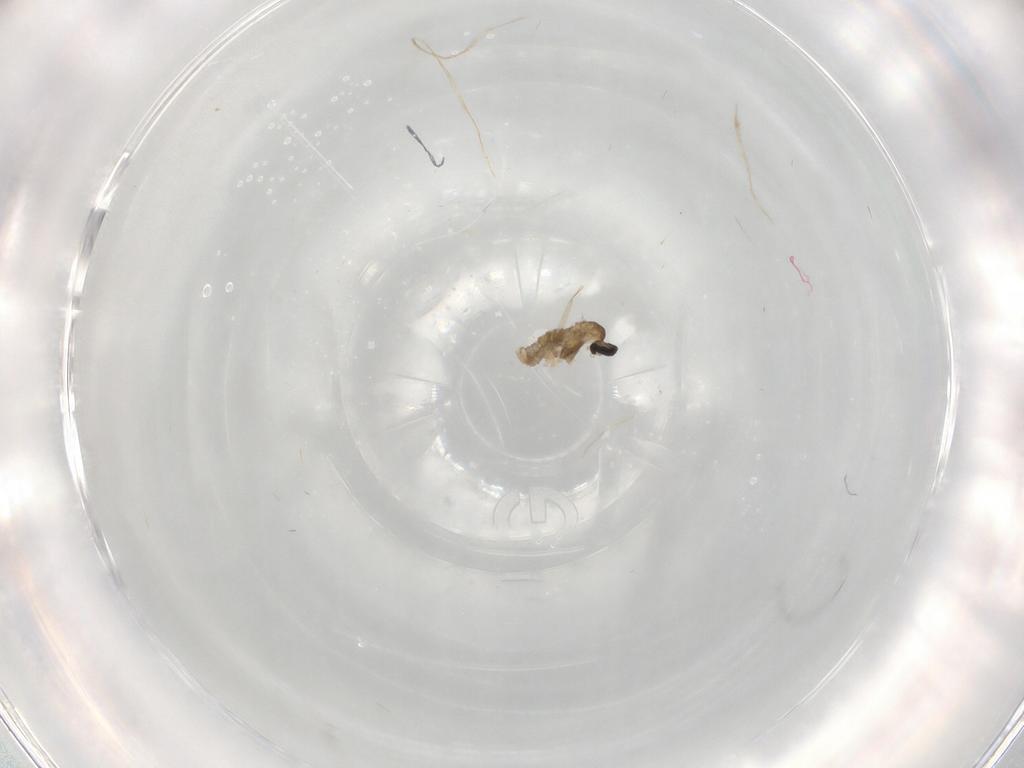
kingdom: Animalia
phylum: Arthropoda
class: Insecta
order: Diptera
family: Cecidomyiidae
